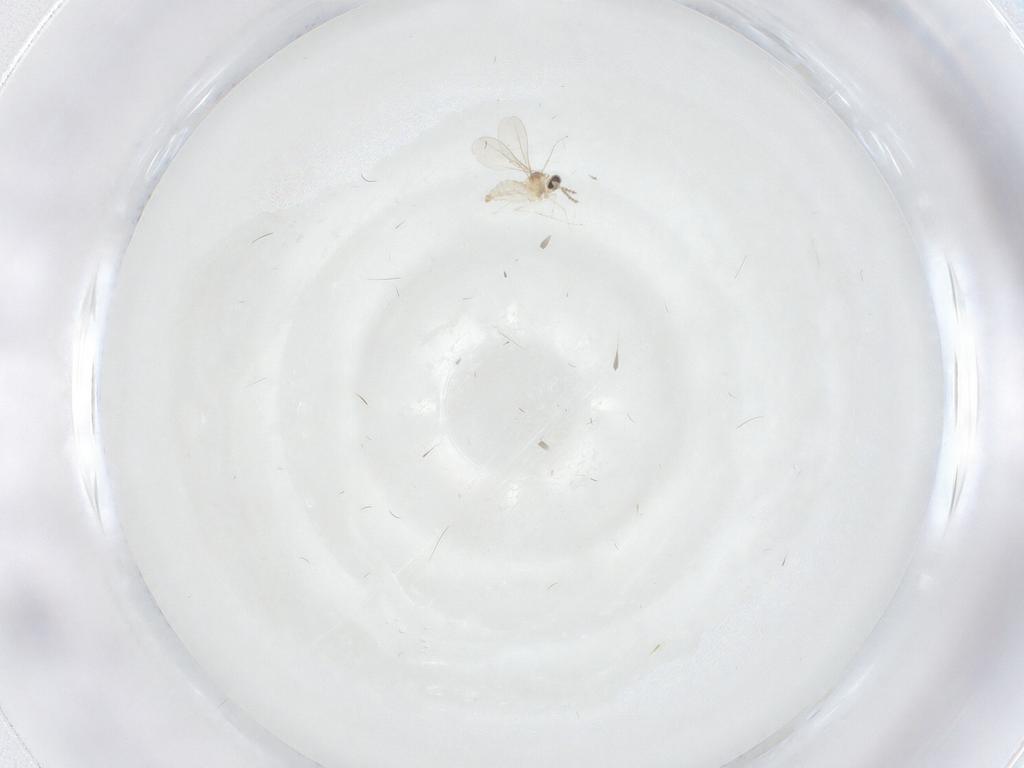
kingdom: Animalia
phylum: Arthropoda
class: Insecta
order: Diptera
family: Cecidomyiidae
